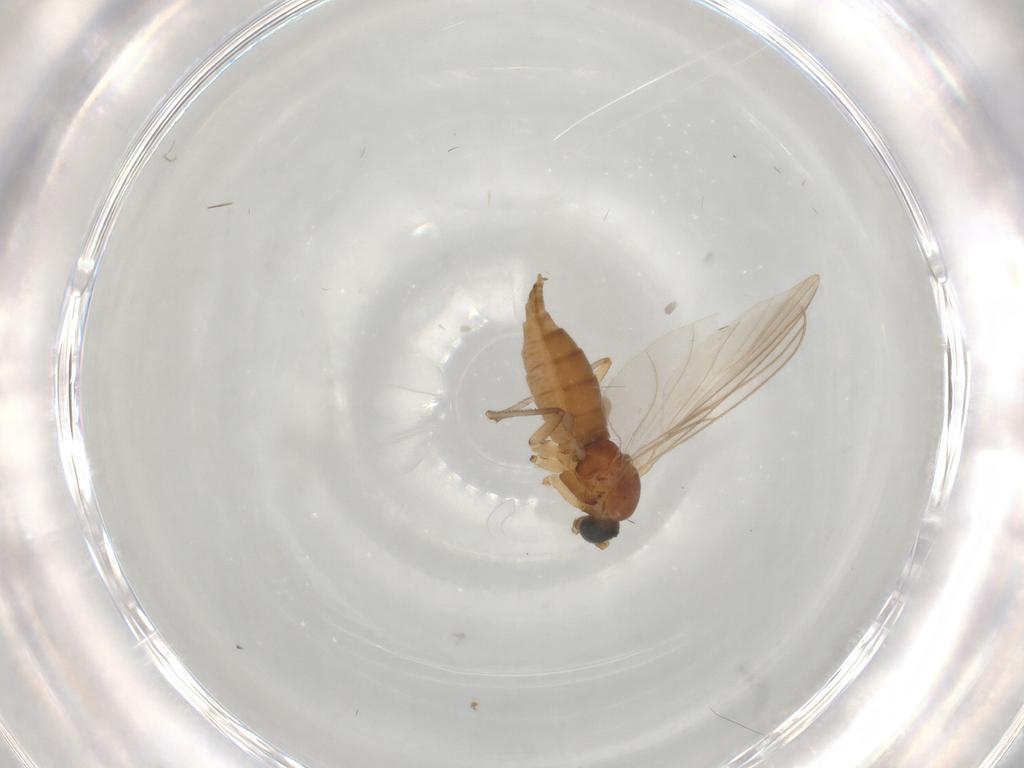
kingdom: Animalia
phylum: Arthropoda
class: Insecta
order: Diptera
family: Sciaridae
